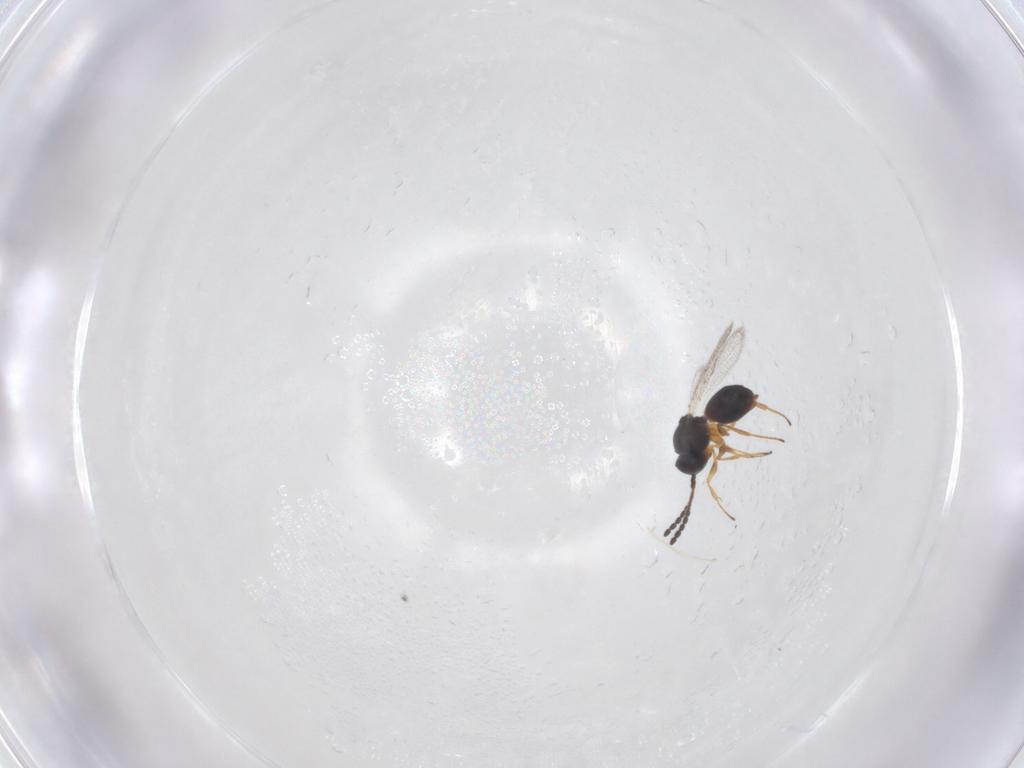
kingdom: Animalia
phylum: Arthropoda
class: Insecta
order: Hymenoptera
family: Figitidae
